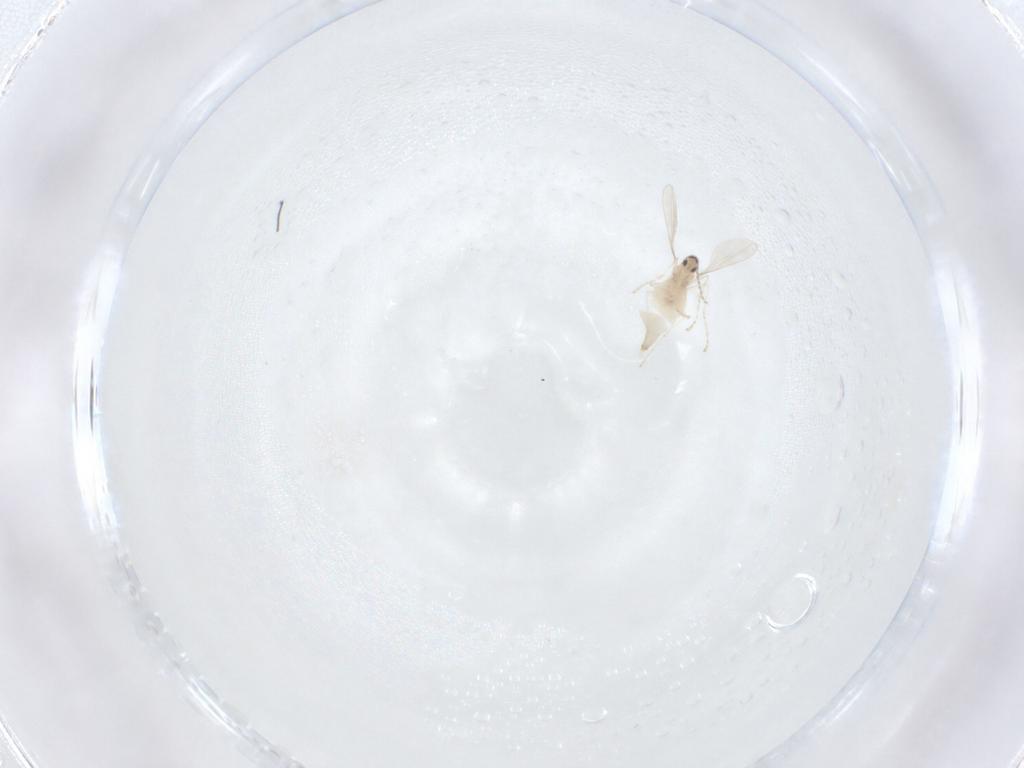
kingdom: Animalia
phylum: Arthropoda
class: Insecta
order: Diptera
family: Cecidomyiidae
